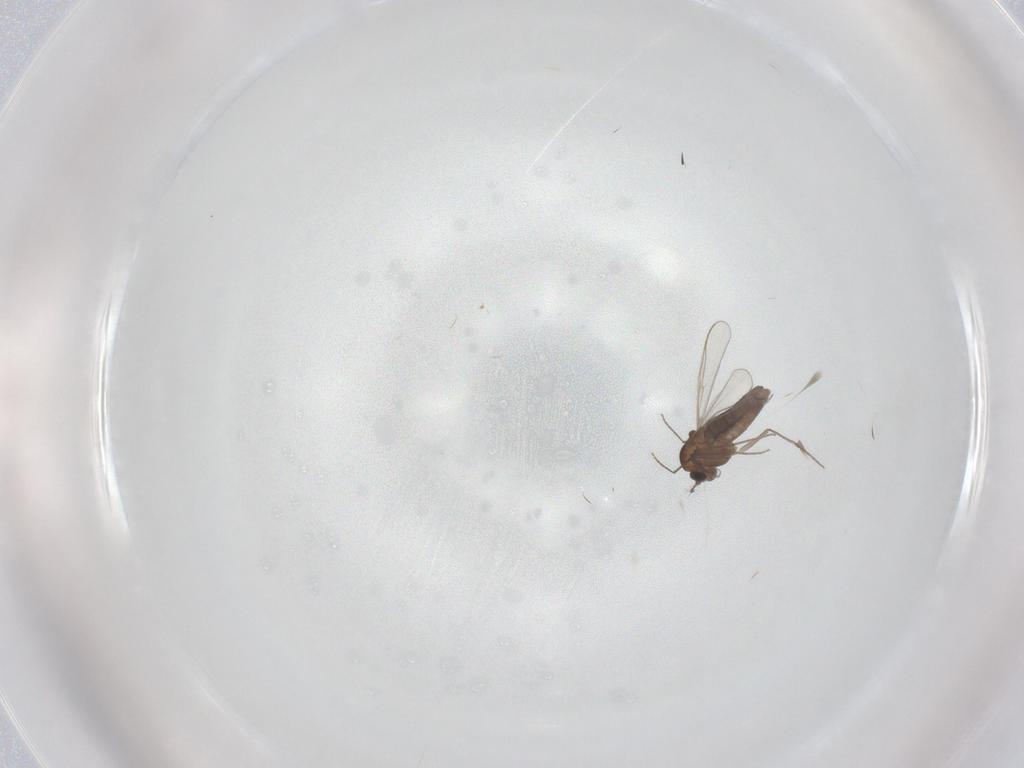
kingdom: Animalia
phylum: Arthropoda
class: Insecta
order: Diptera
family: Chironomidae
